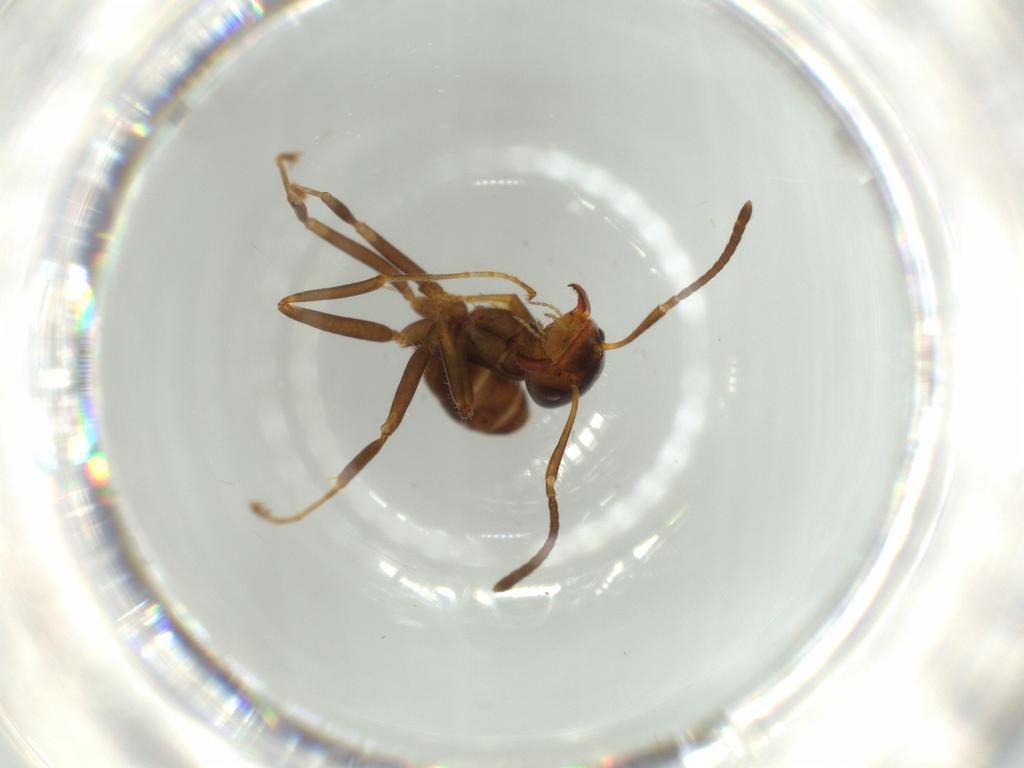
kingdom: Animalia
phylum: Arthropoda
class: Insecta
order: Hymenoptera
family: Formicidae
